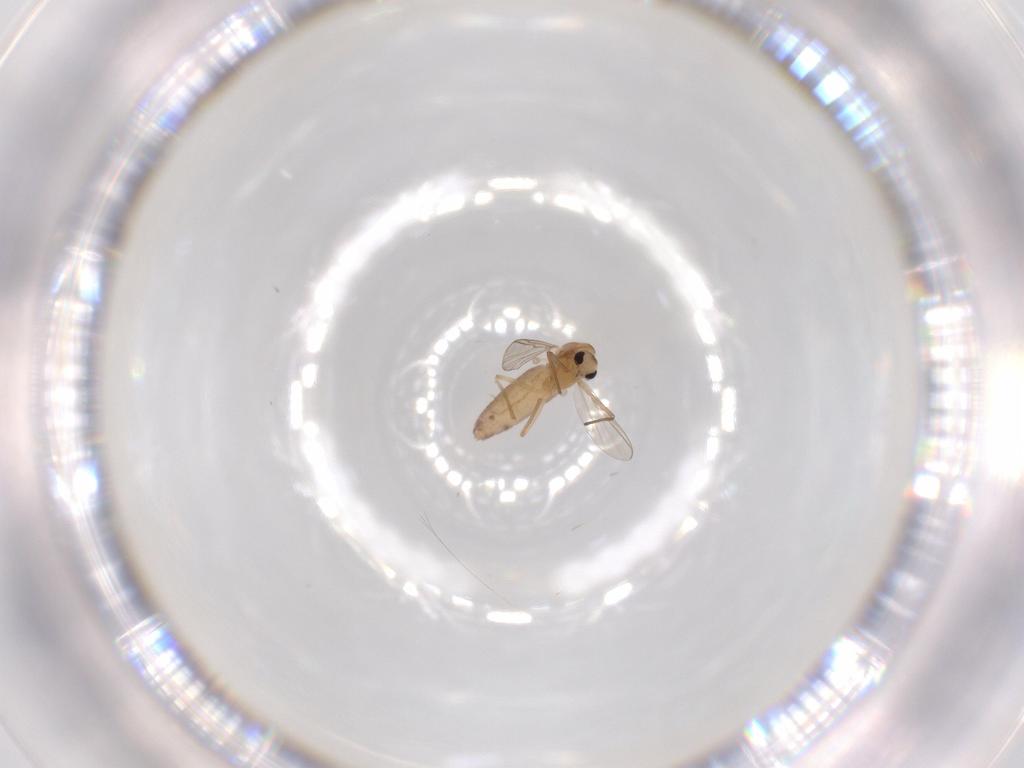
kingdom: Animalia
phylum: Arthropoda
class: Insecta
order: Diptera
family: Chironomidae
